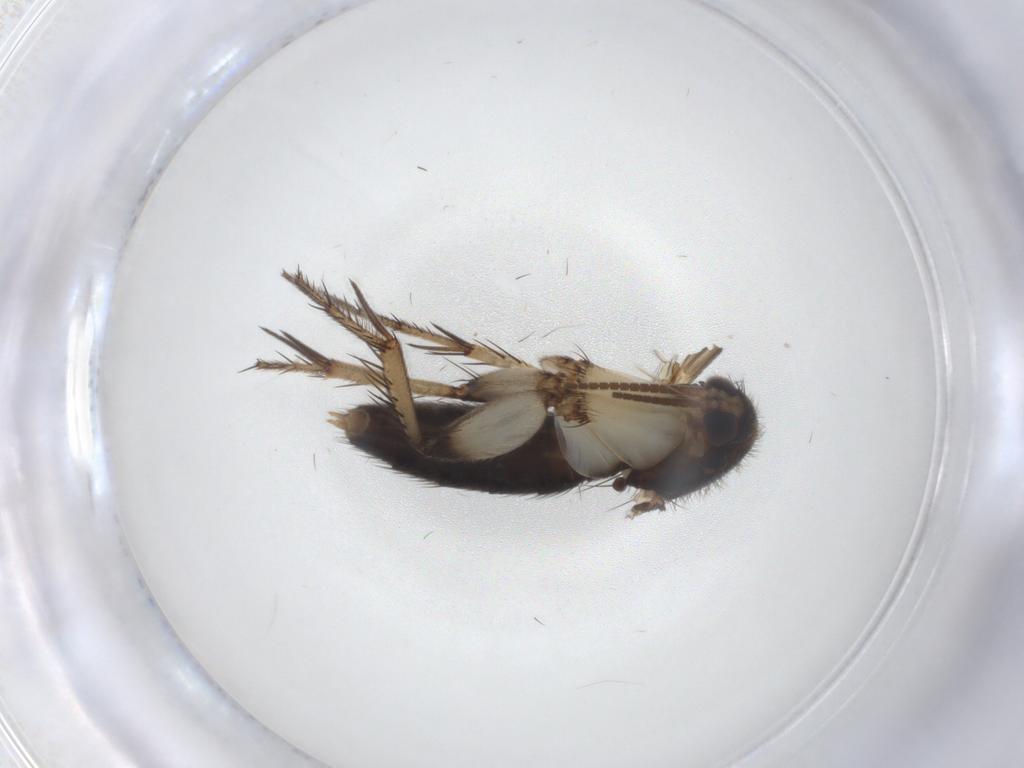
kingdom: Animalia
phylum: Arthropoda
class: Insecta
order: Diptera
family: Mycetophilidae
